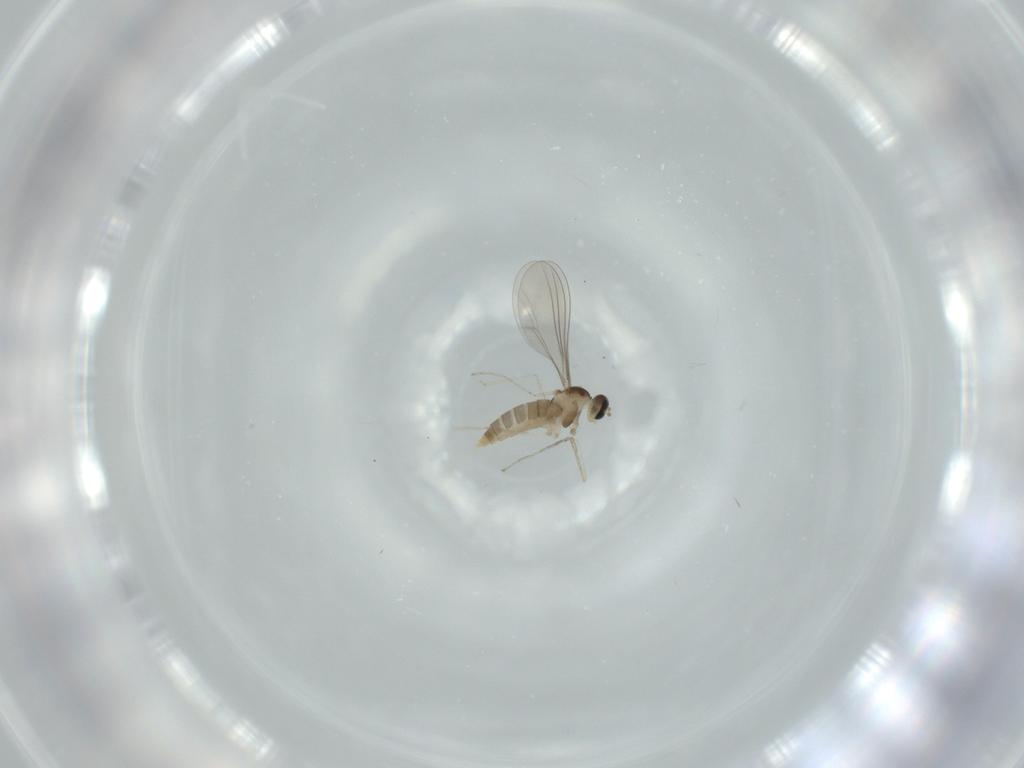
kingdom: Animalia
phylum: Arthropoda
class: Insecta
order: Diptera
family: Cecidomyiidae
